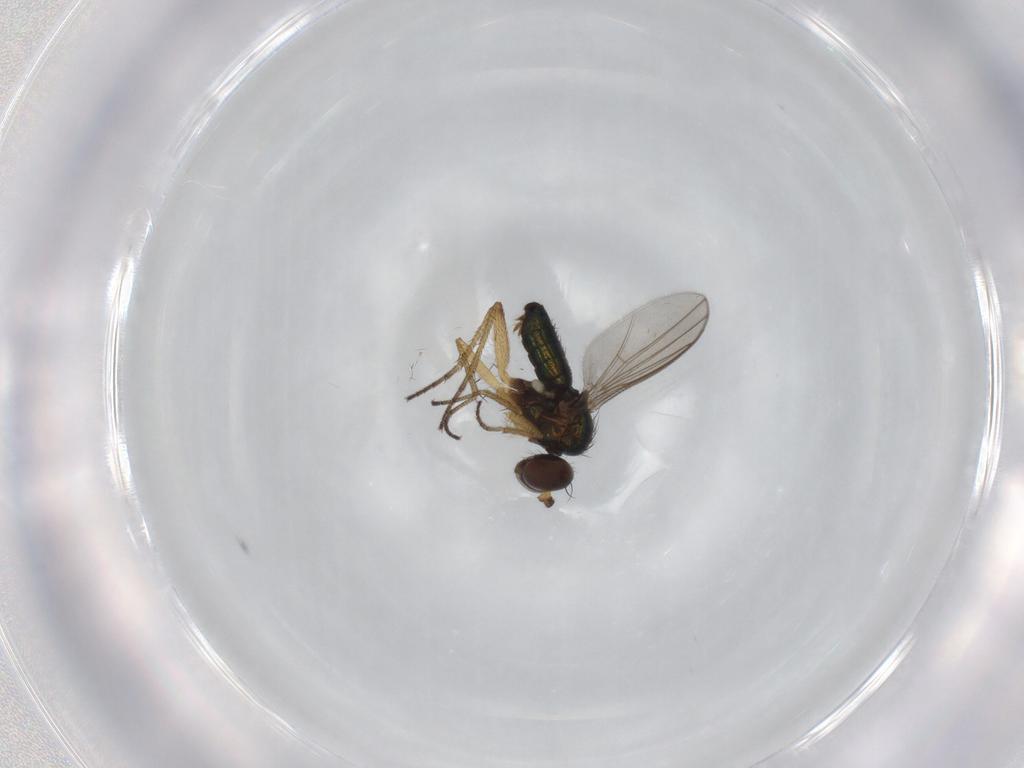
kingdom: Animalia
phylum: Arthropoda
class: Insecta
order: Diptera
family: Dolichopodidae
